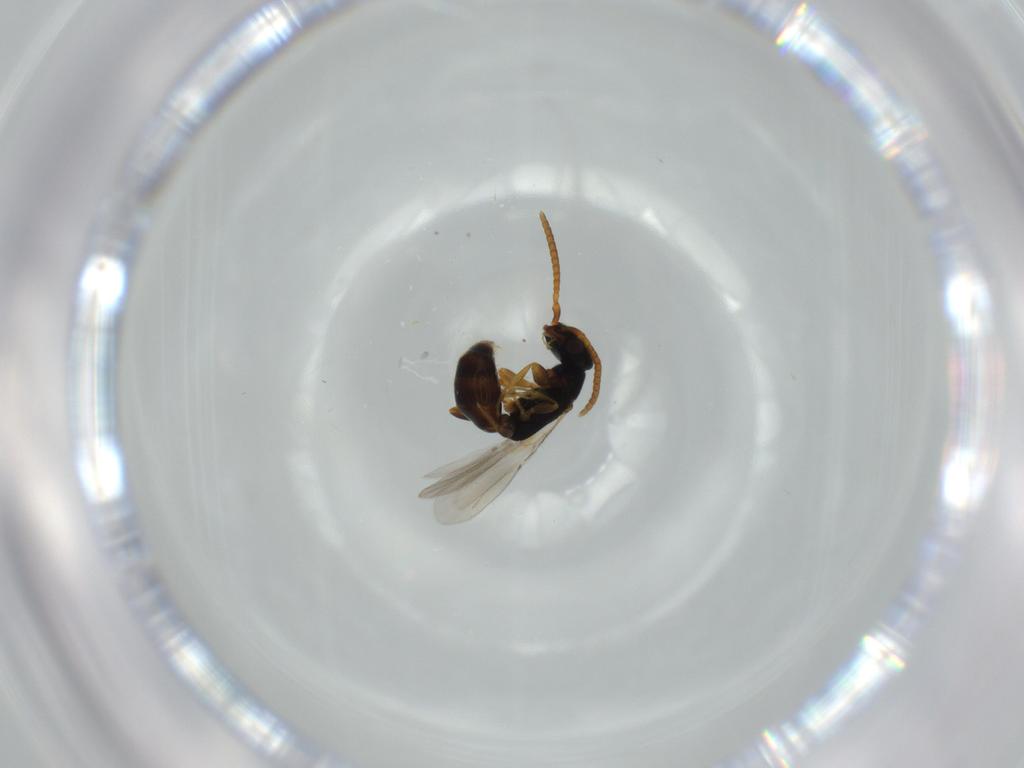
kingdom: Animalia
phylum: Arthropoda
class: Insecta
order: Hymenoptera
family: Bethylidae
